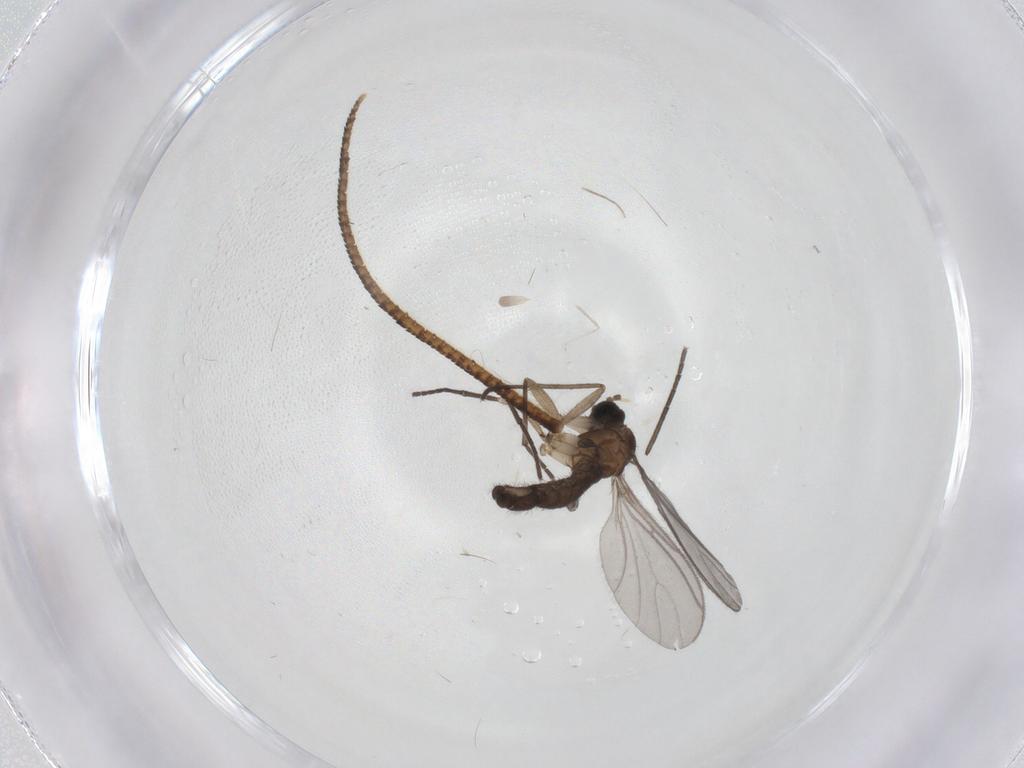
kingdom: Animalia
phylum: Arthropoda
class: Insecta
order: Diptera
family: Sciaridae
